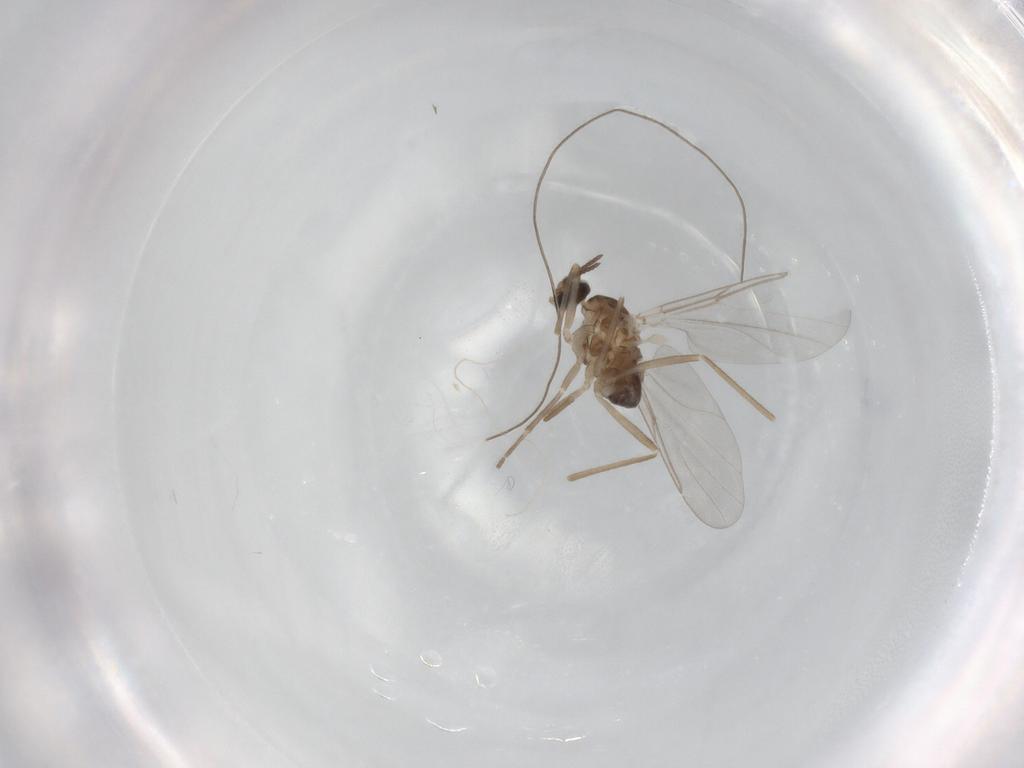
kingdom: Animalia
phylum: Arthropoda
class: Insecta
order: Diptera
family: Cecidomyiidae
